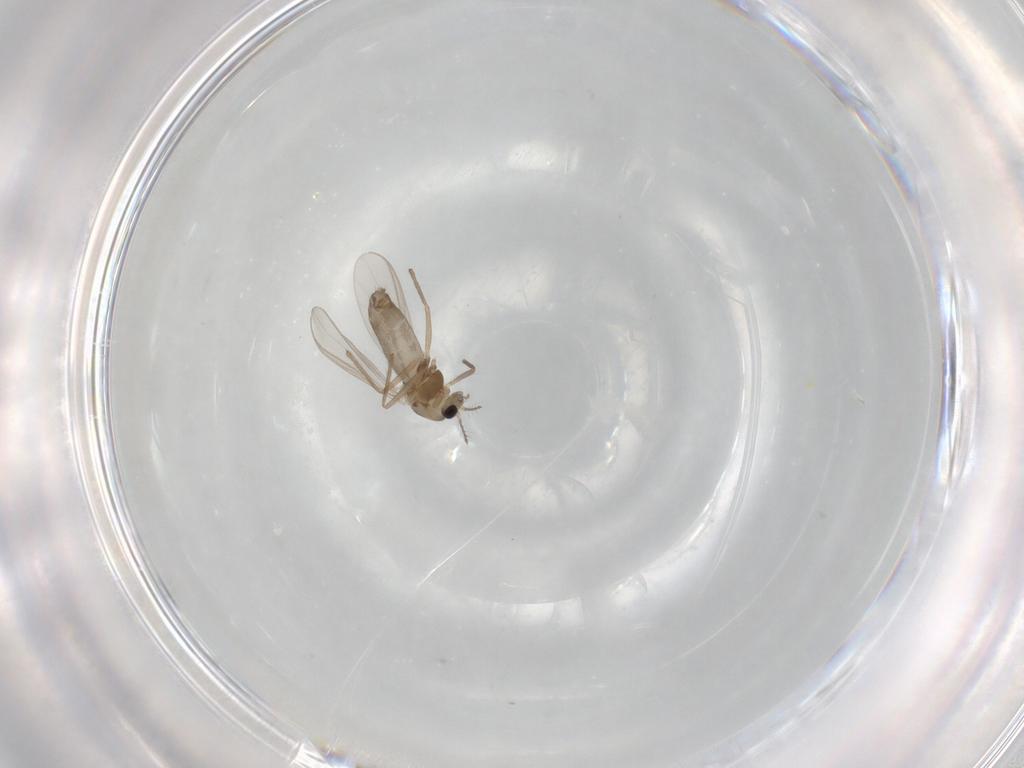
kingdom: Animalia
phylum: Arthropoda
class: Insecta
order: Diptera
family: Chironomidae
